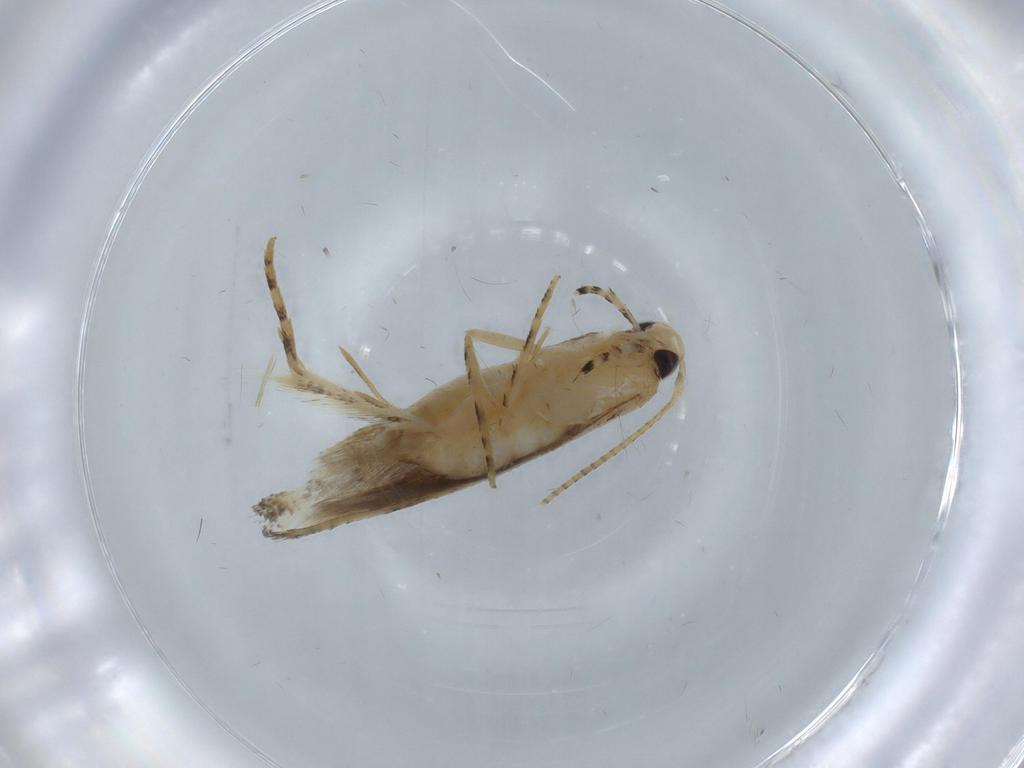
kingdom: Animalia
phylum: Arthropoda
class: Insecta
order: Lepidoptera
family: Gelechiidae
